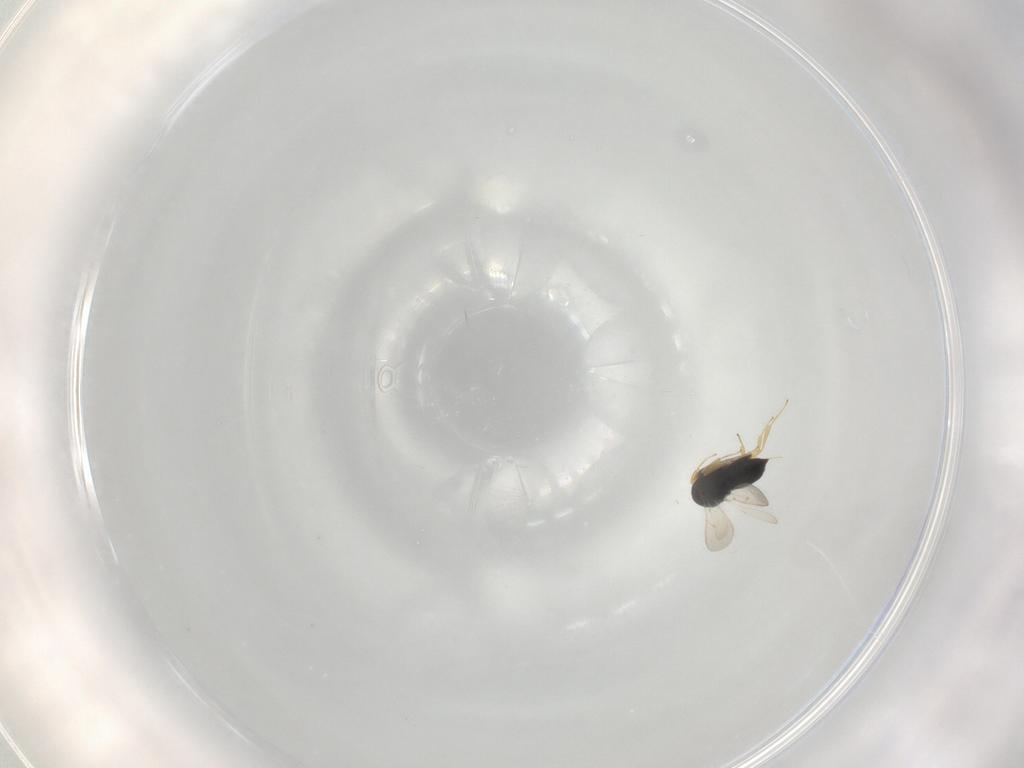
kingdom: Animalia
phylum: Arthropoda
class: Insecta
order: Hymenoptera
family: Scelionidae
